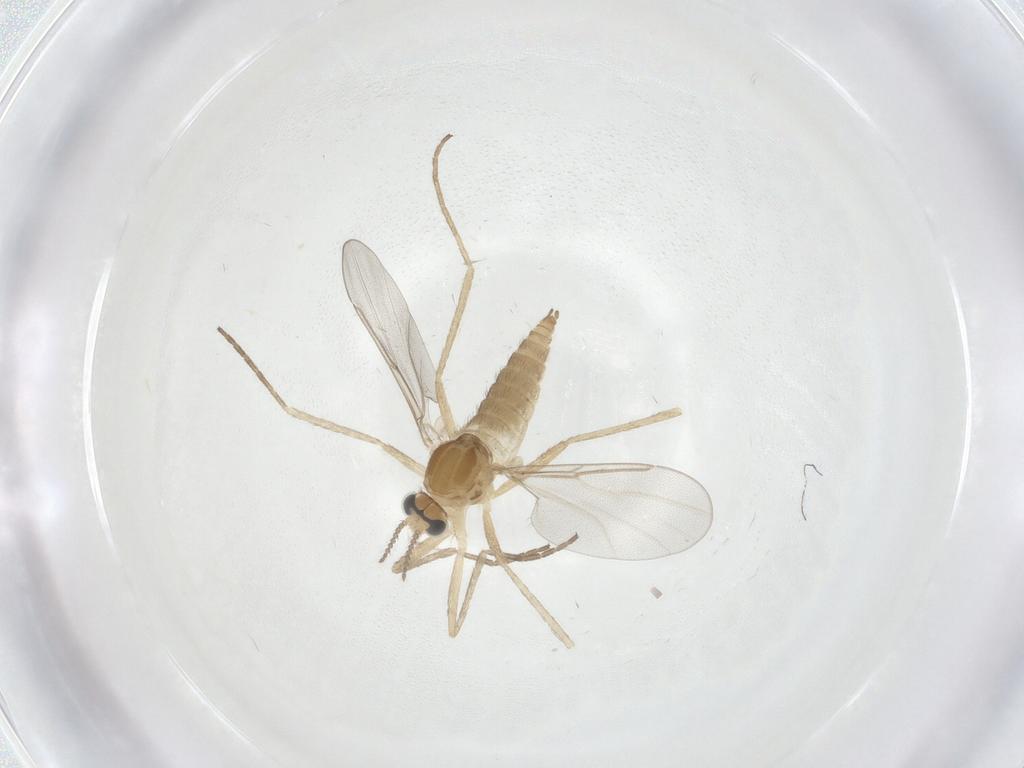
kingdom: Animalia
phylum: Arthropoda
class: Insecta
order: Diptera
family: Cecidomyiidae
